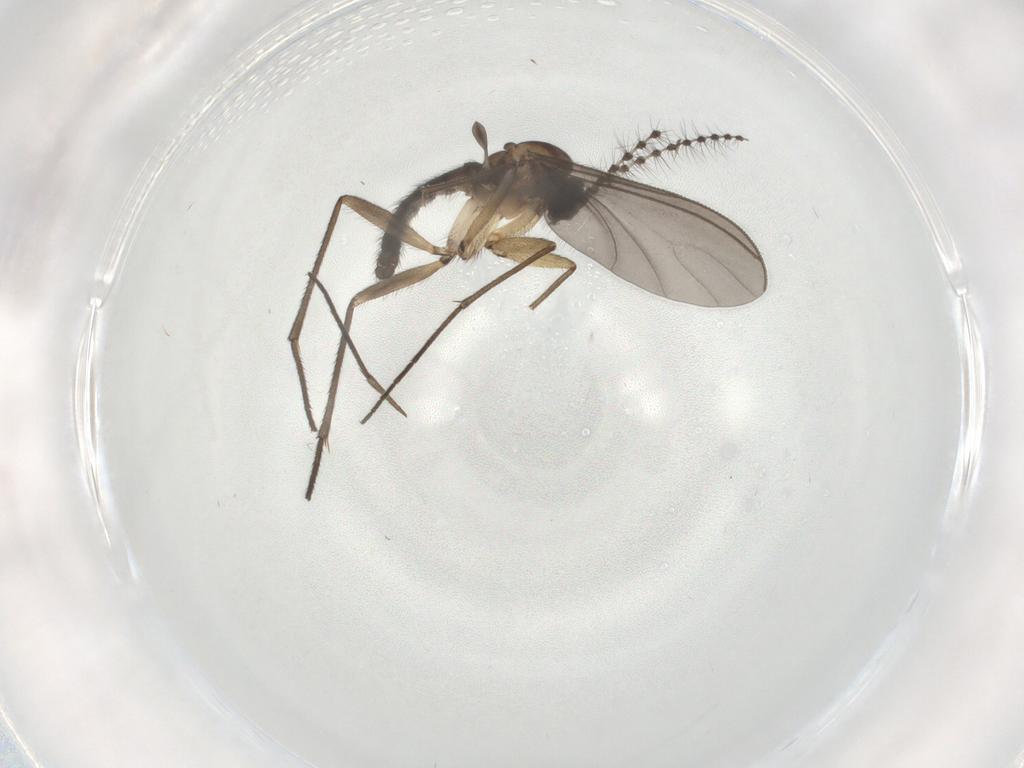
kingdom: Animalia
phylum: Arthropoda
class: Insecta
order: Diptera
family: Sciaridae
